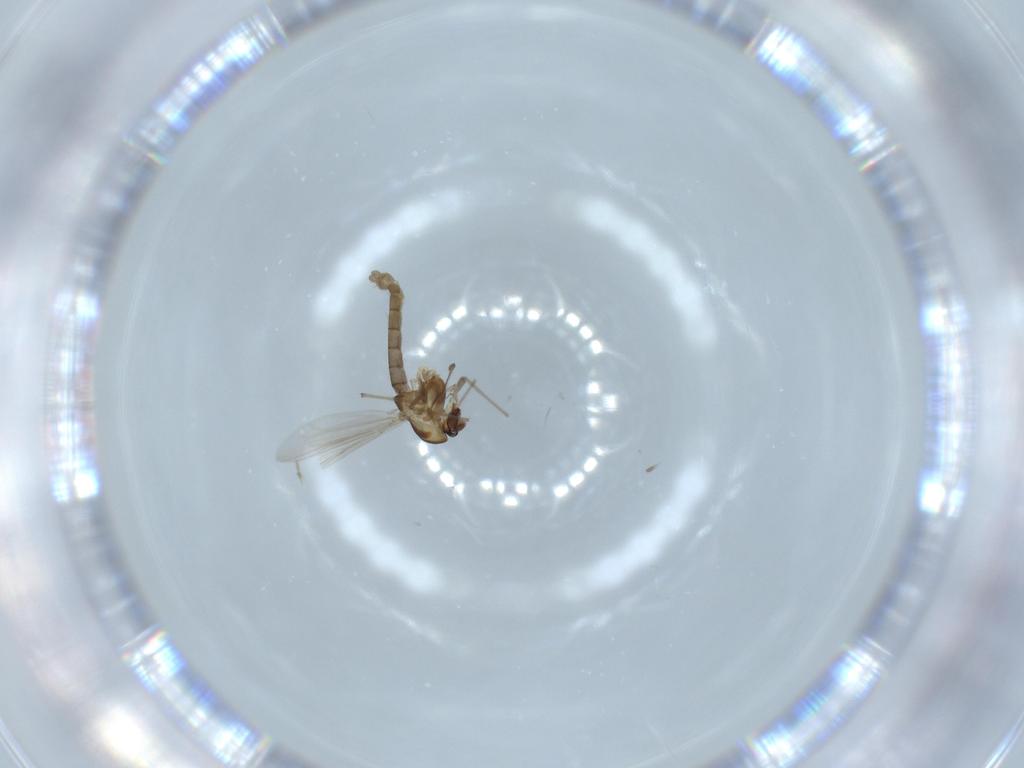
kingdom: Animalia
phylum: Arthropoda
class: Insecta
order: Diptera
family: Chironomidae
